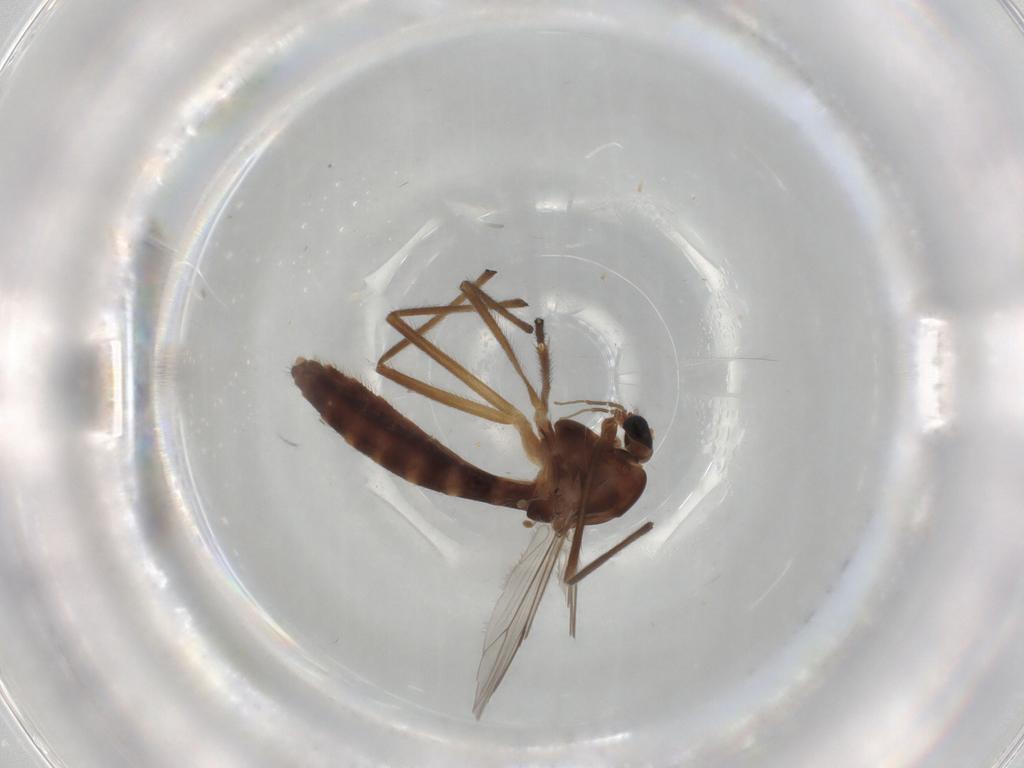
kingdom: Animalia
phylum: Arthropoda
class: Insecta
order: Diptera
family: Chironomidae
